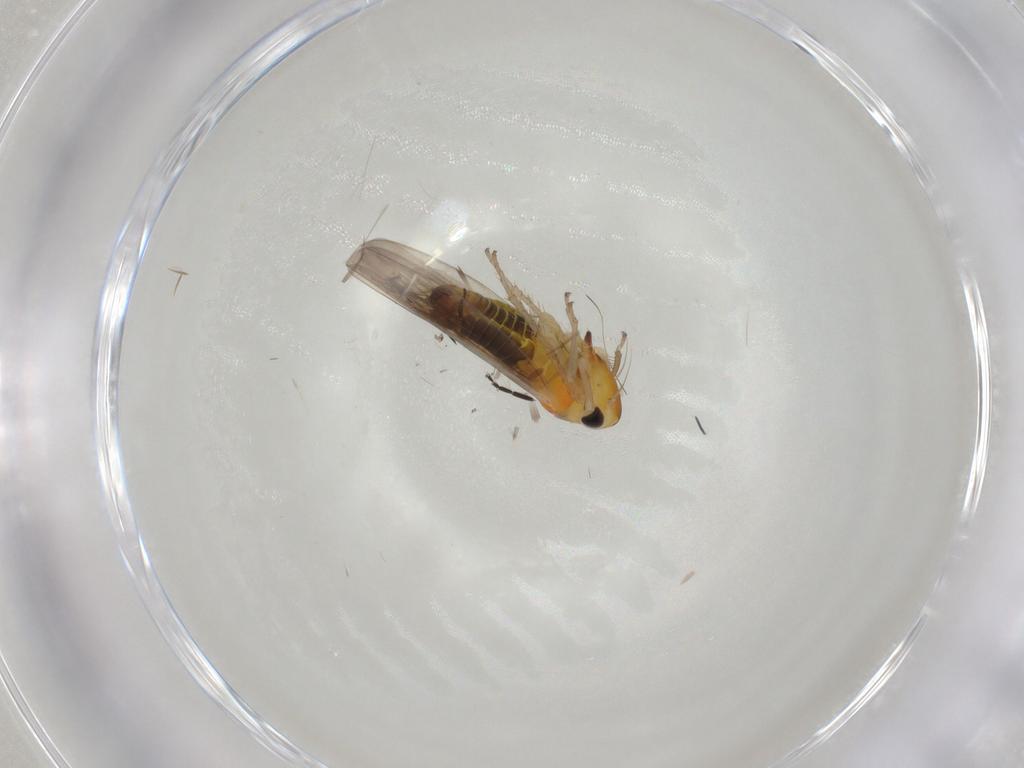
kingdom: Animalia
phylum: Arthropoda
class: Insecta
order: Hemiptera
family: Cicadellidae
